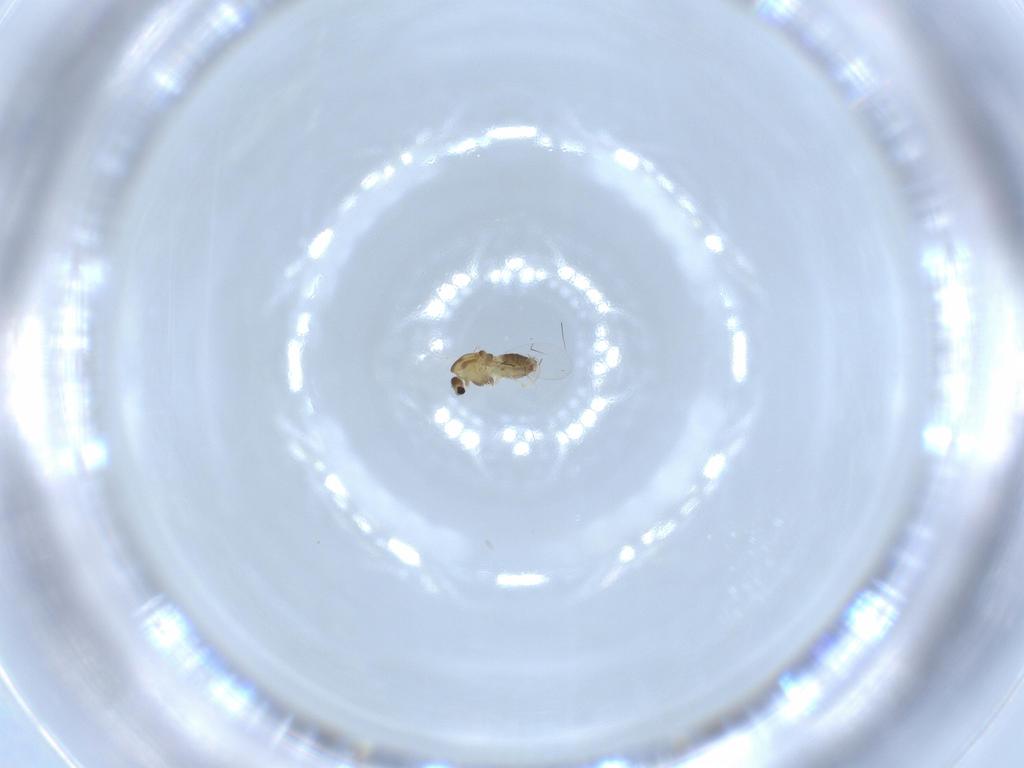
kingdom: Animalia
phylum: Arthropoda
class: Insecta
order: Diptera
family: Chironomidae
